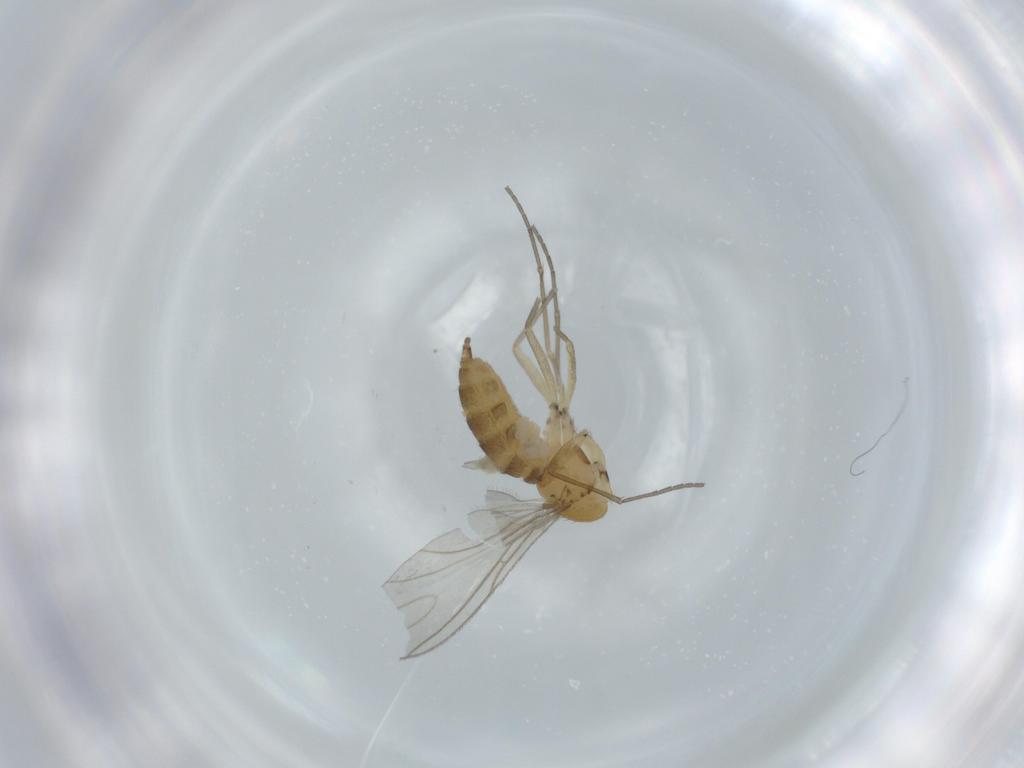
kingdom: Animalia
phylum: Arthropoda
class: Insecta
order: Diptera
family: Sciaridae
